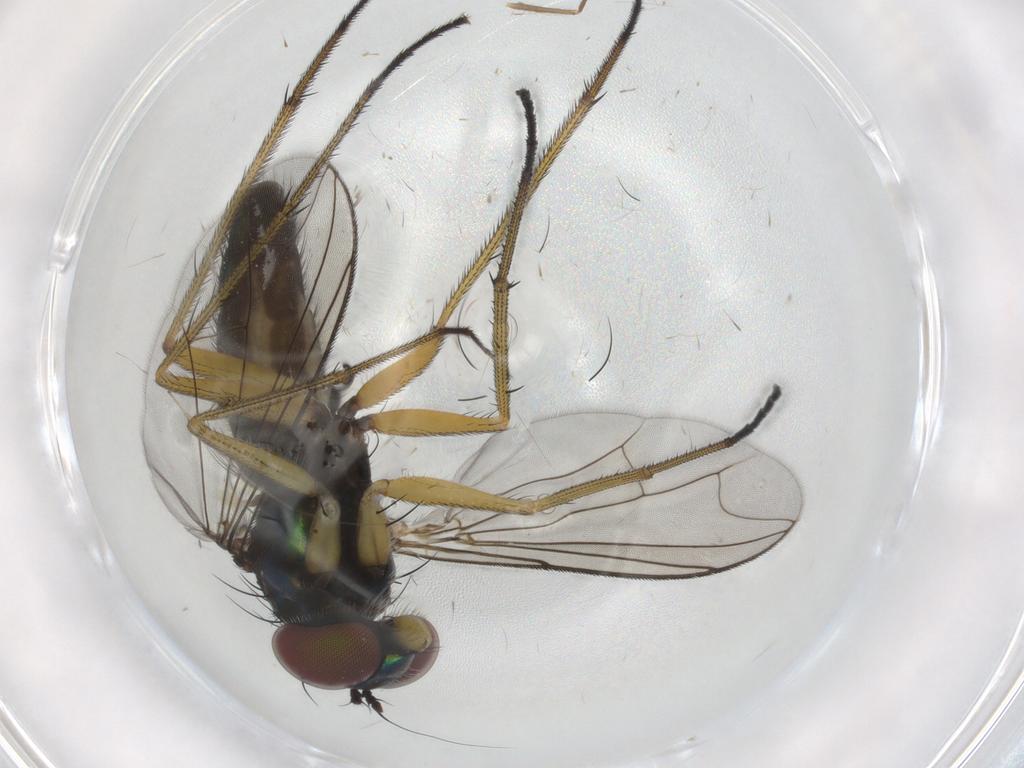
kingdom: Animalia
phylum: Arthropoda
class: Insecta
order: Diptera
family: Dolichopodidae
